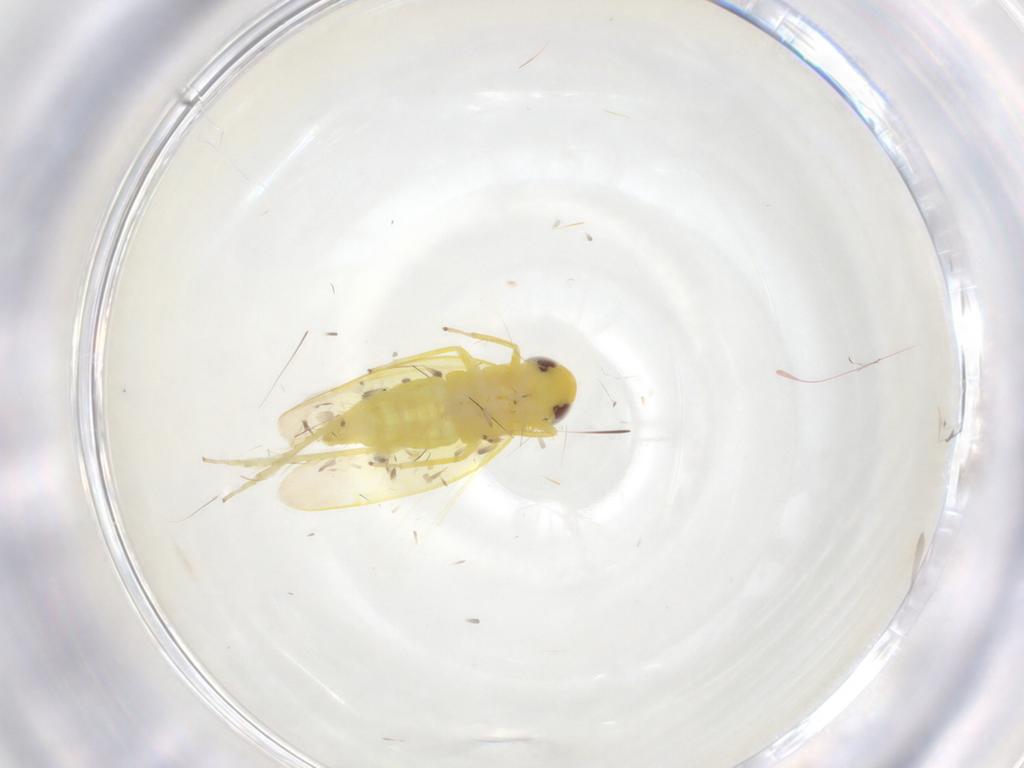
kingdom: Animalia
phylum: Arthropoda
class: Insecta
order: Hemiptera
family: Cicadellidae
